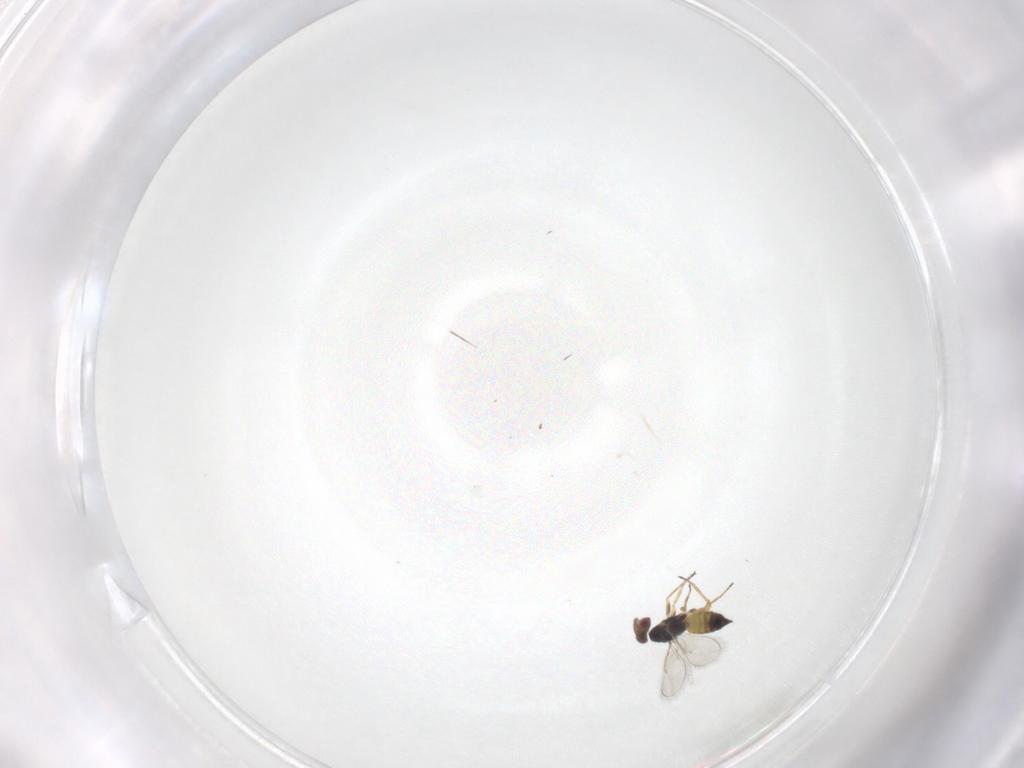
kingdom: Animalia
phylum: Arthropoda
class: Insecta
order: Hymenoptera
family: Eulophidae
